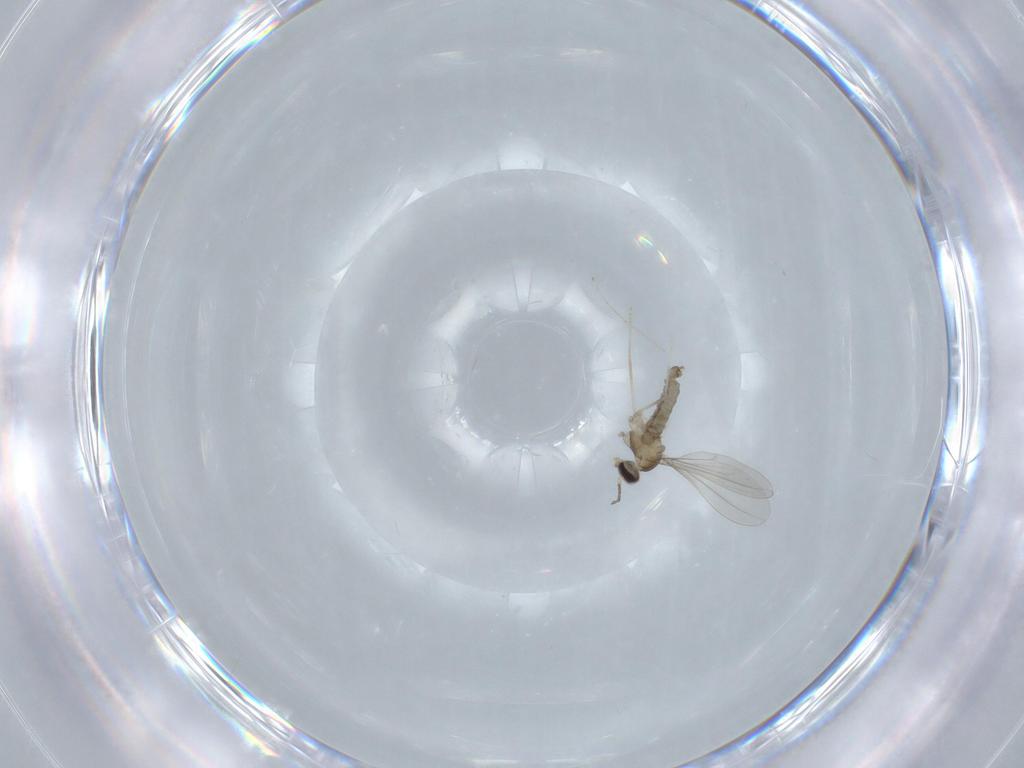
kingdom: Animalia
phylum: Arthropoda
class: Insecta
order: Diptera
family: Cecidomyiidae
